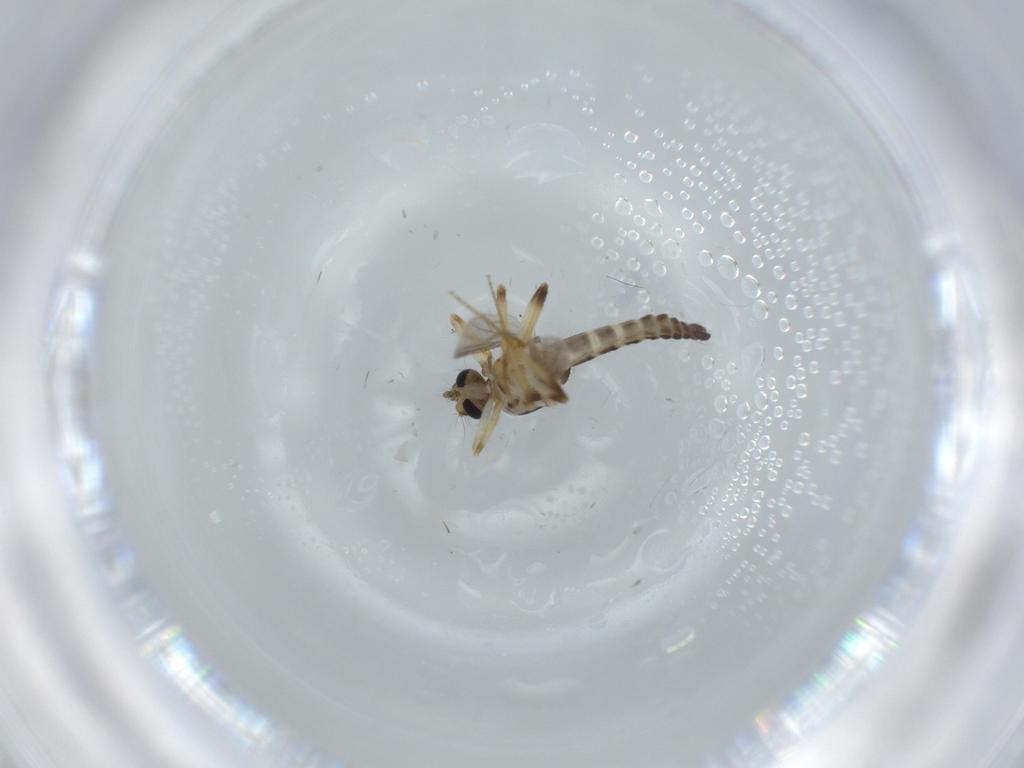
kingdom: Animalia
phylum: Arthropoda
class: Insecta
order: Diptera
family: Ceratopogonidae
